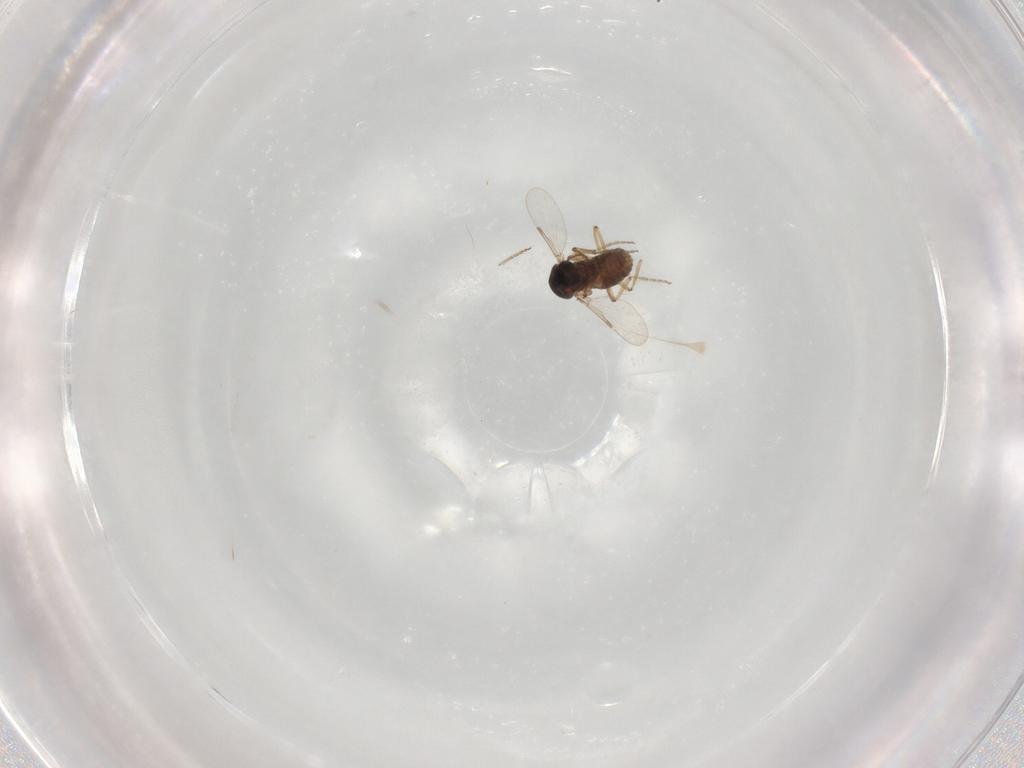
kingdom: Animalia
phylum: Arthropoda
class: Insecta
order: Diptera
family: Ceratopogonidae
